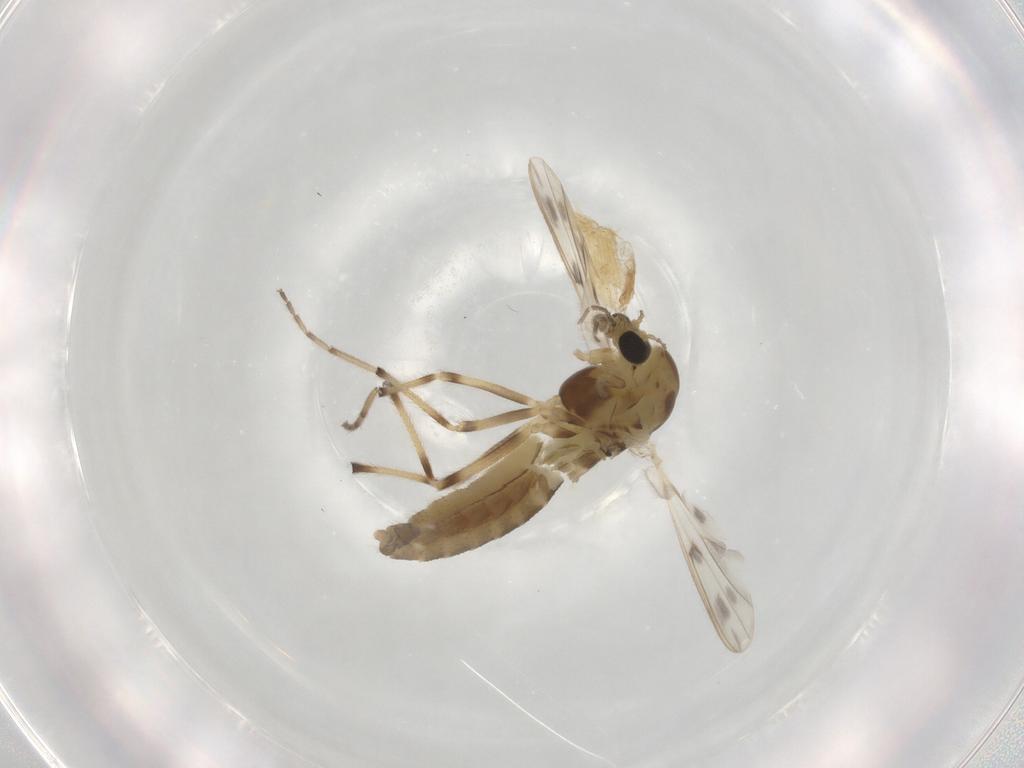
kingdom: Animalia
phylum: Arthropoda
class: Insecta
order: Diptera
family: Chironomidae
